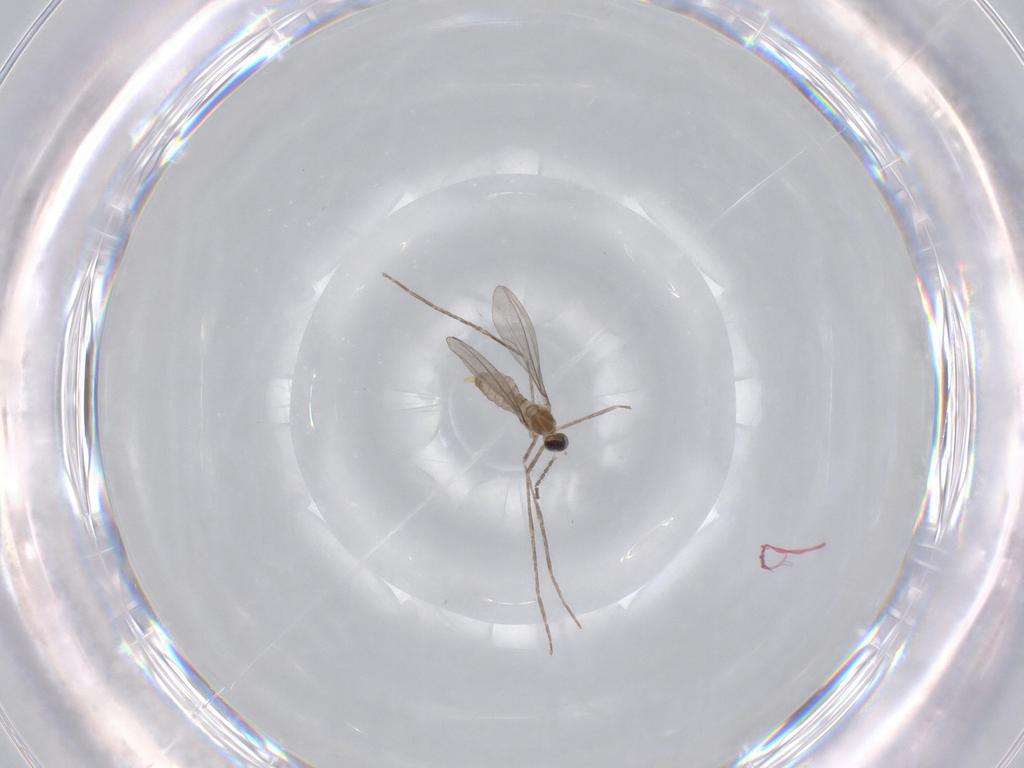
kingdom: Animalia
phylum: Arthropoda
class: Insecta
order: Diptera
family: Cecidomyiidae
